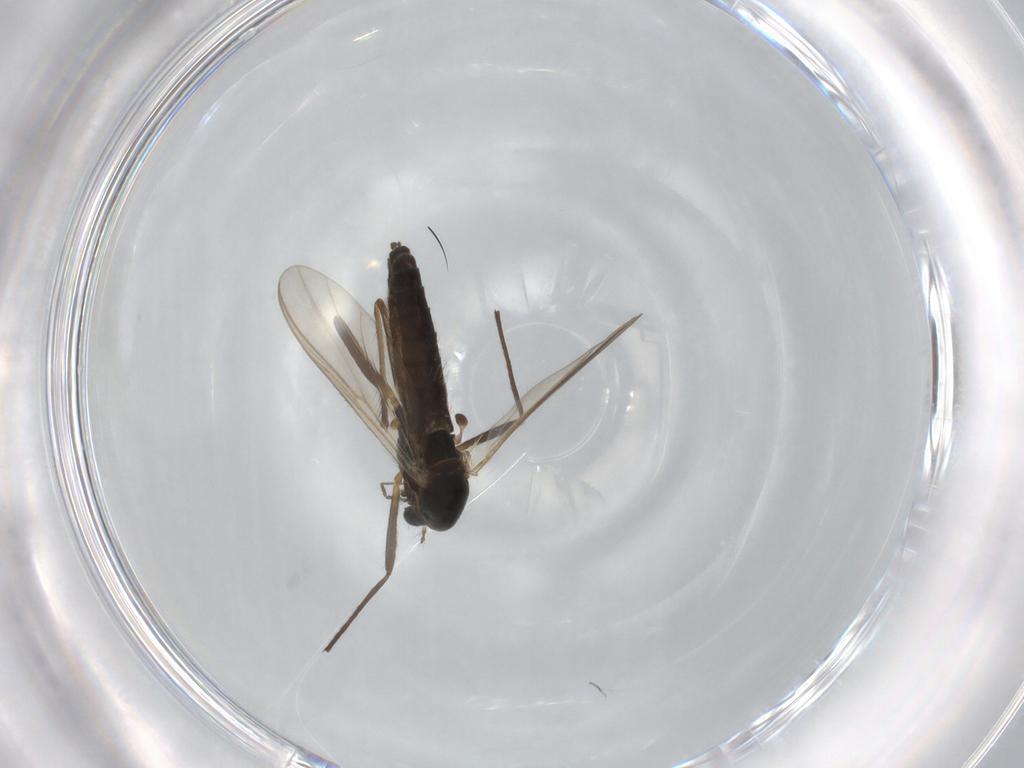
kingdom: Animalia
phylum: Arthropoda
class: Insecta
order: Diptera
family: Chironomidae
